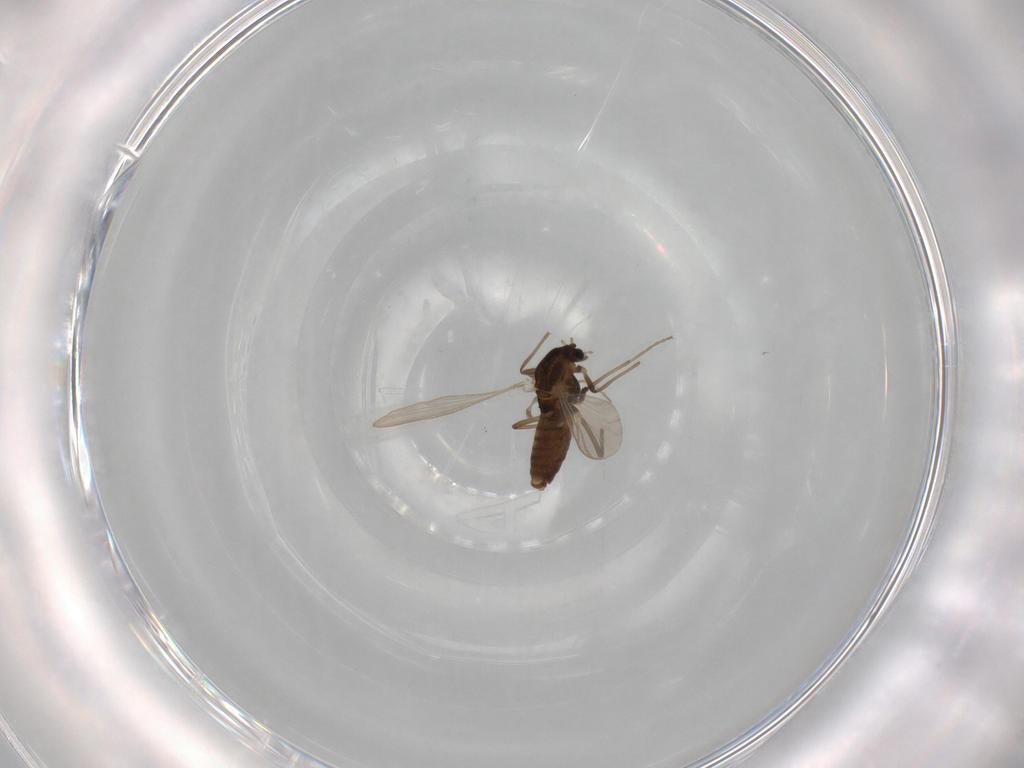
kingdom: Animalia
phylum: Arthropoda
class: Insecta
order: Diptera
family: Chironomidae
